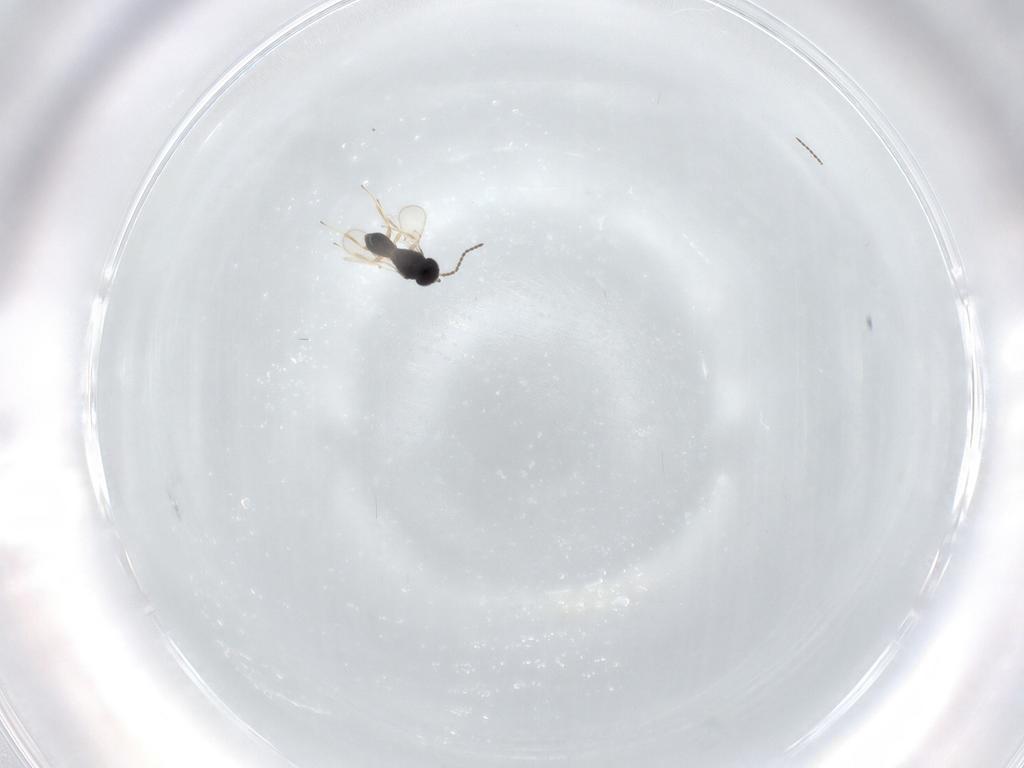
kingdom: Animalia
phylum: Arthropoda
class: Insecta
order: Hymenoptera
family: Scelionidae
